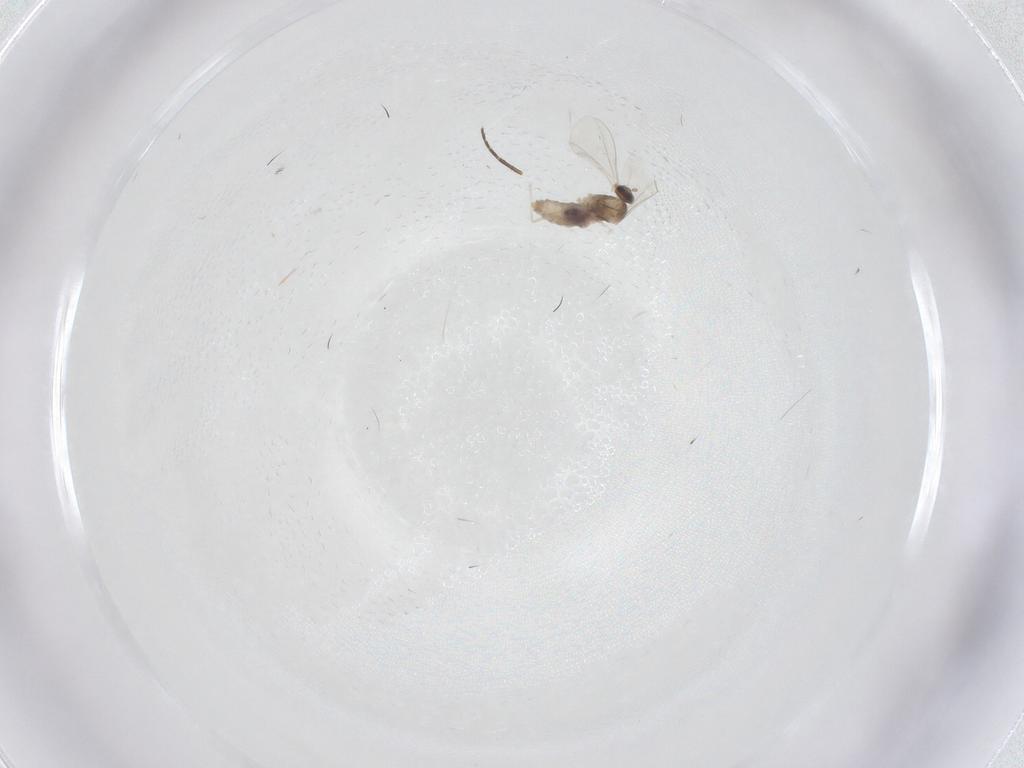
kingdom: Animalia
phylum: Arthropoda
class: Insecta
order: Diptera
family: Cecidomyiidae
